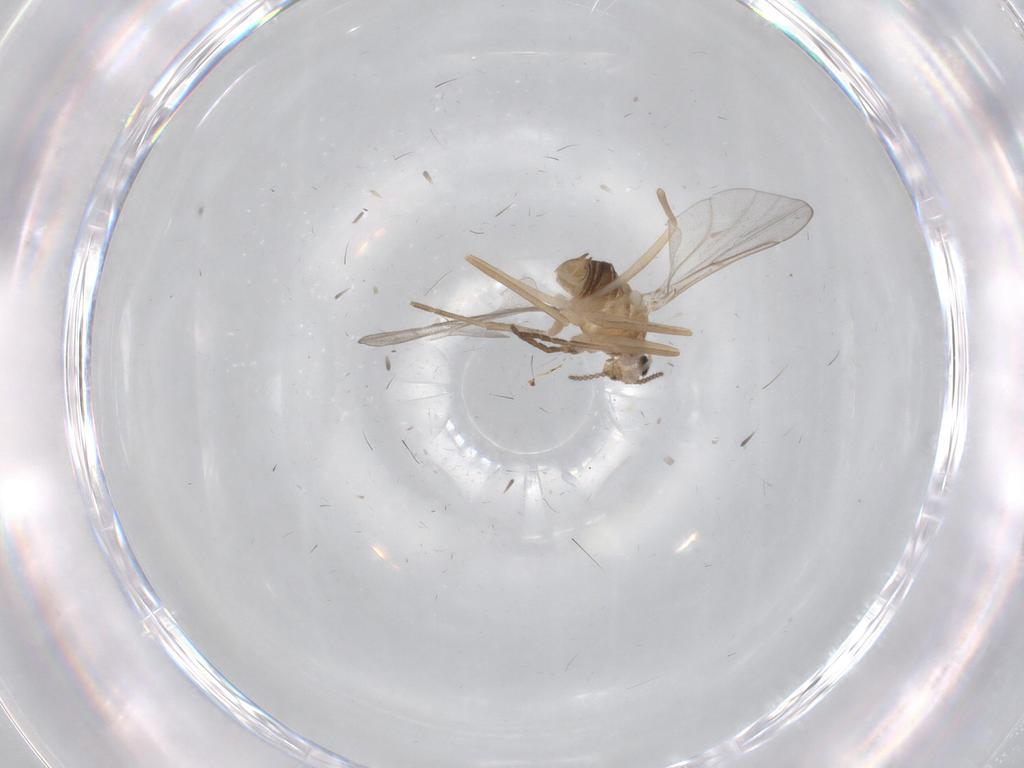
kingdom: Animalia
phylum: Arthropoda
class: Insecta
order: Diptera
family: Cecidomyiidae
